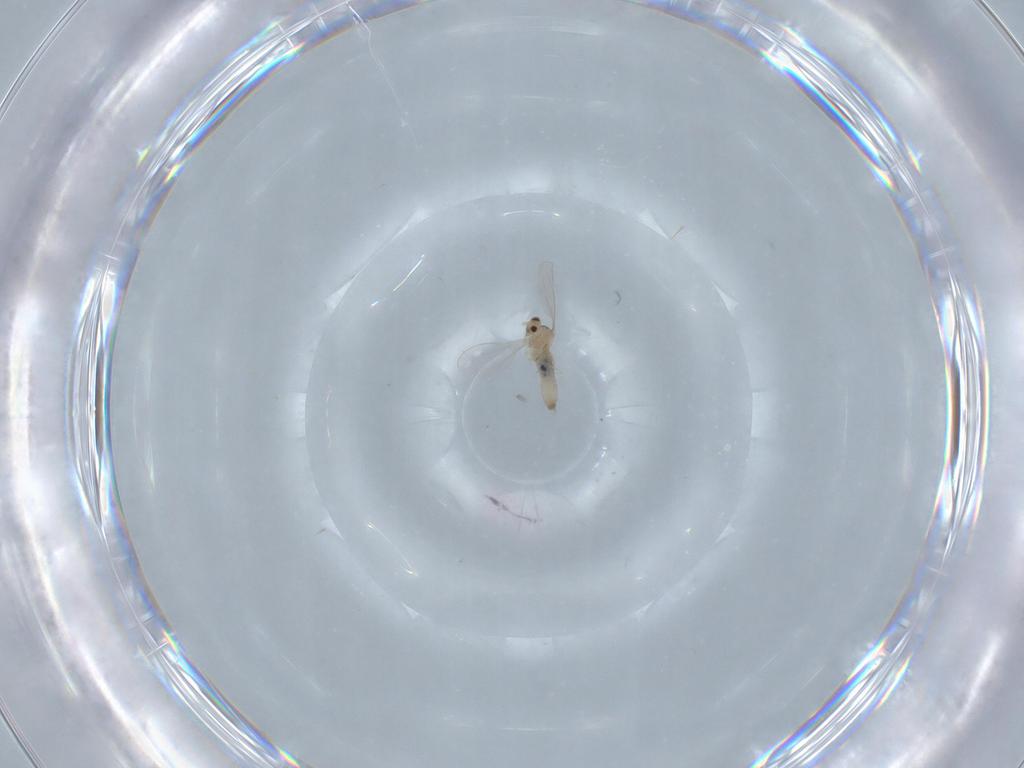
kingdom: Animalia
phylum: Arthropoda
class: Insecta
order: Diptera
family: Cecidomyiidae
